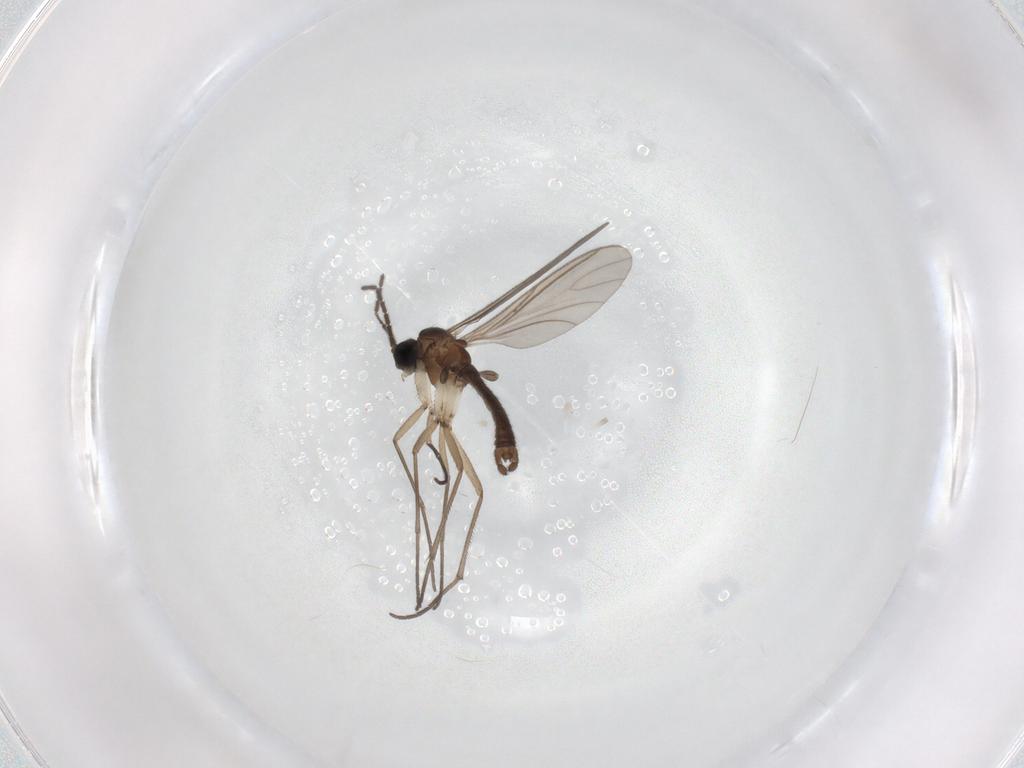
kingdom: Animalia
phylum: Arthropoda
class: Insecta
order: Diptera
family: Sciaridae
